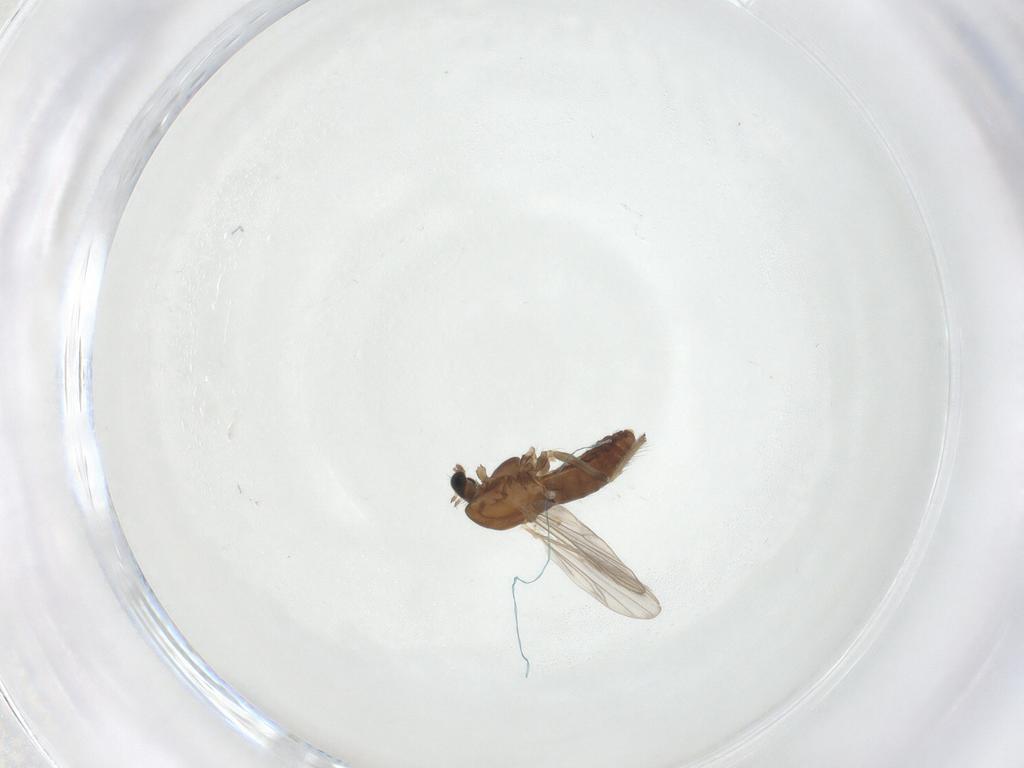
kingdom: Animalia
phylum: Arthropoda
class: Insecta
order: Diptera
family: Chironomidae
